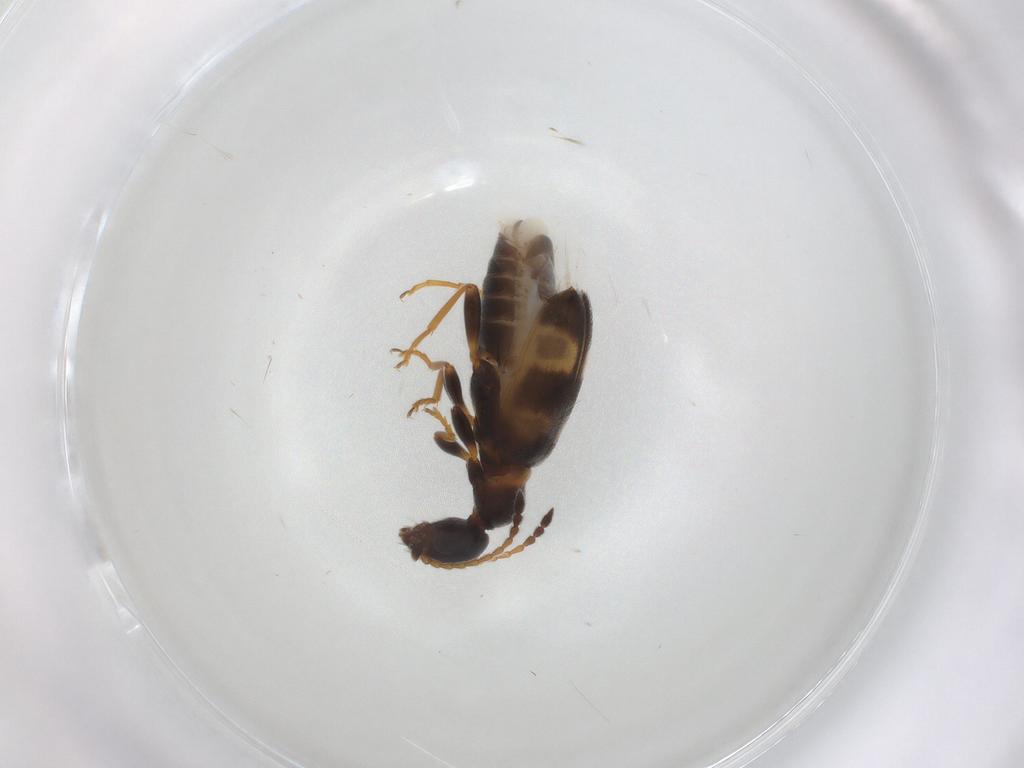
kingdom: Animalia
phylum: Arthropoda
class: Insecta
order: Coleoptera
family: Anthicidae
